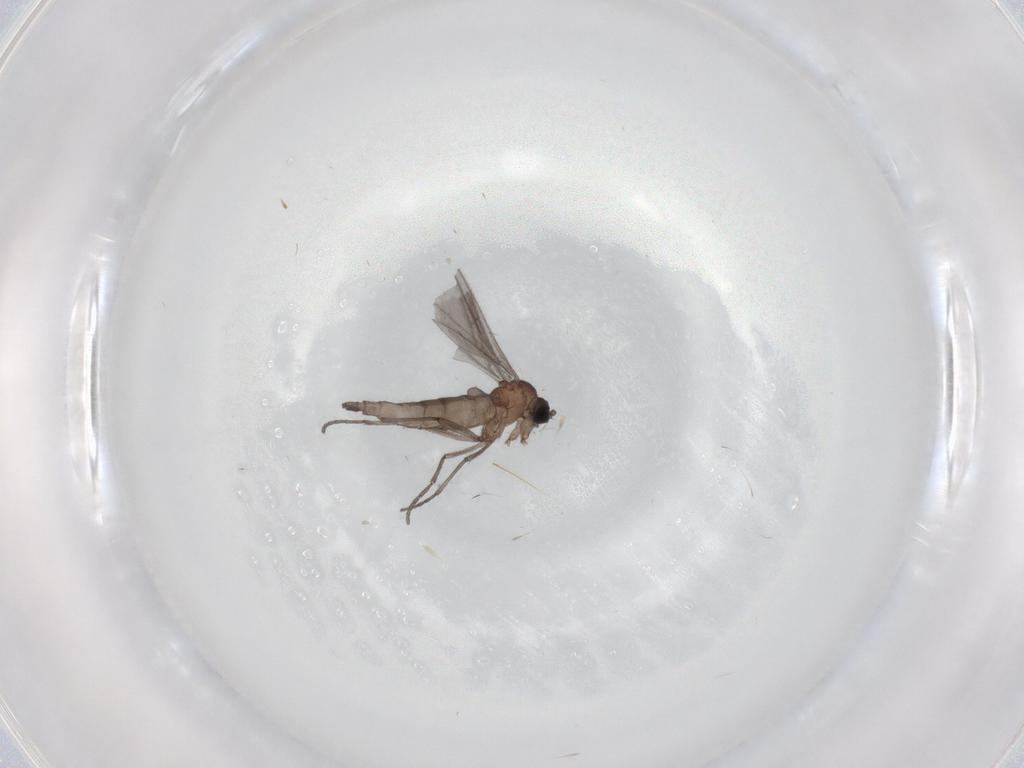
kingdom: Animalia
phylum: Arthropoda
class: Insecta
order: Diptera
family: Sciaridae
